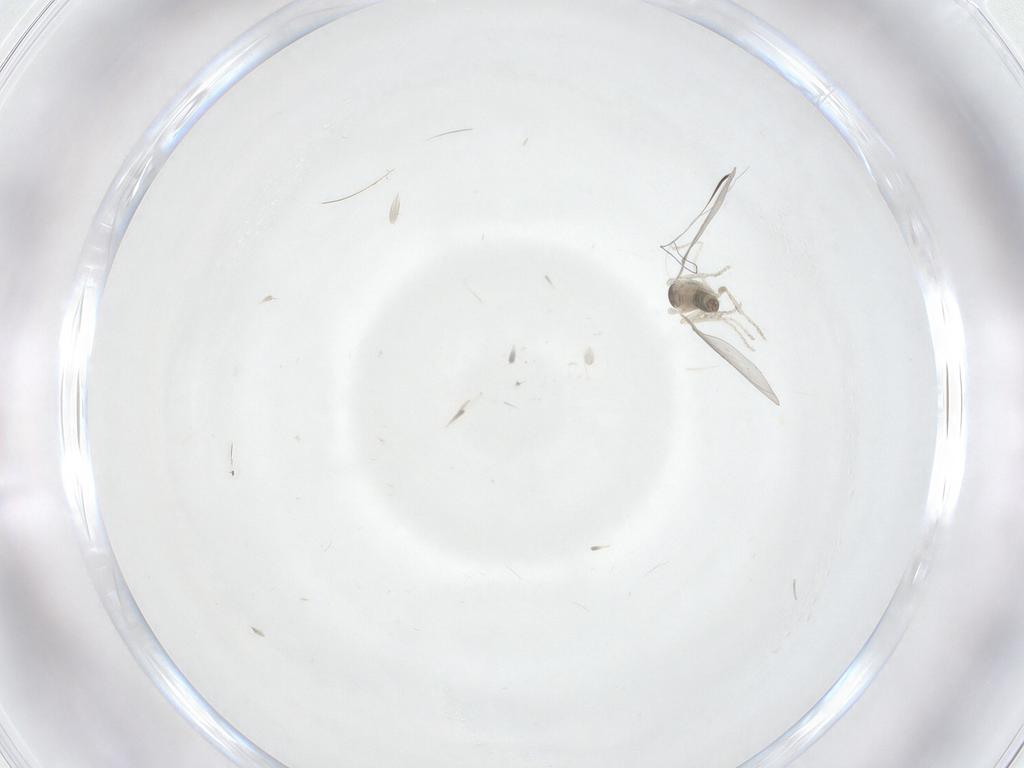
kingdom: Animalia
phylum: Arthropoda
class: Insecta
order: Diptera
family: Cecidomyiidae
